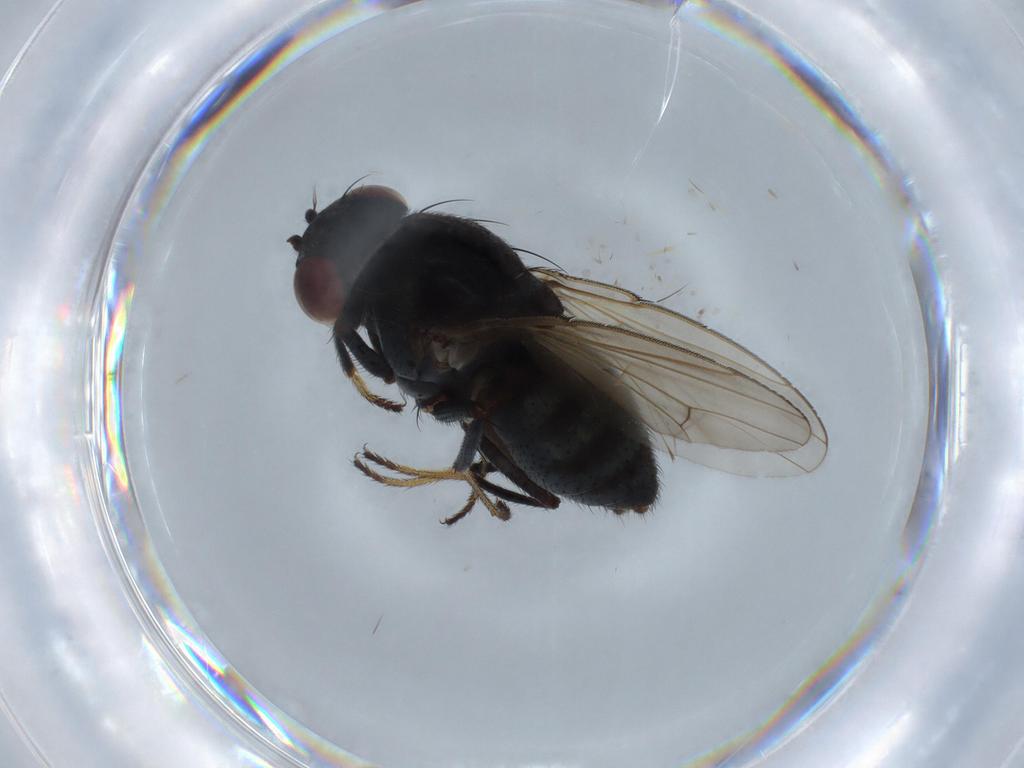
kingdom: Animalia
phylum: Arthropoda
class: Insecta
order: Diptera
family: Ephydridae
